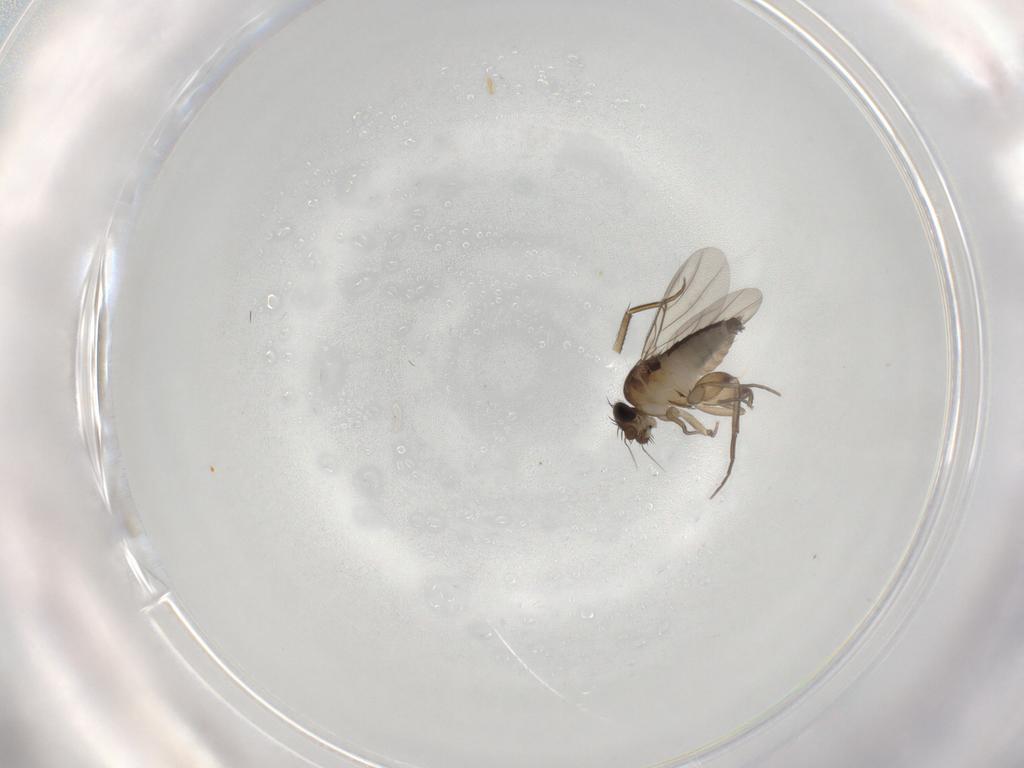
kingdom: Animalia
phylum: Arthropoda
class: Insecta
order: Diptera
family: Phoridae
